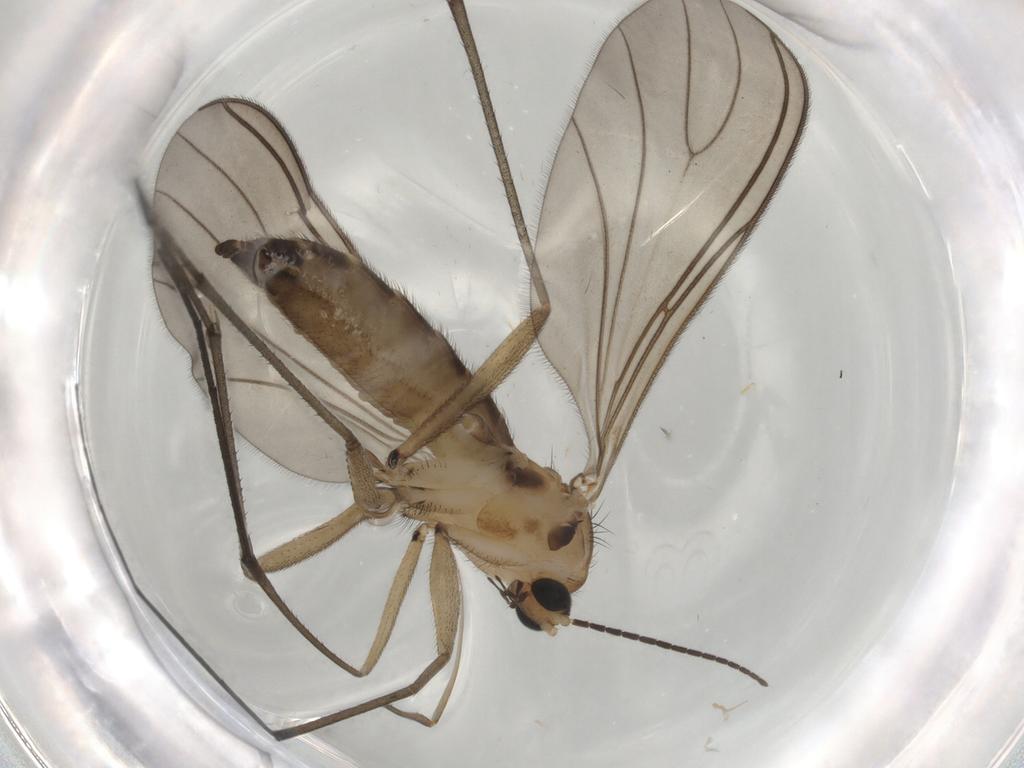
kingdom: Animalia
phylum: Arthropoda
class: Insecta
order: Diptera
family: Sciaridae
